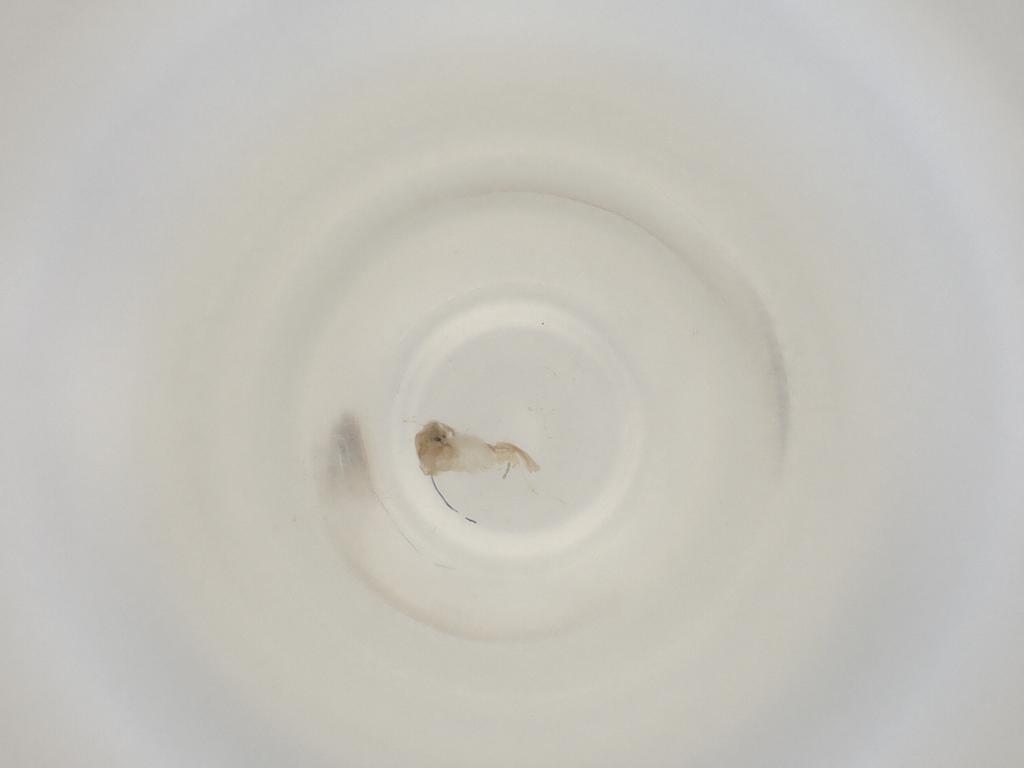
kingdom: Animalia
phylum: Arthropoda
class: Insecta
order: Diptera
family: Cecidomyiidae
